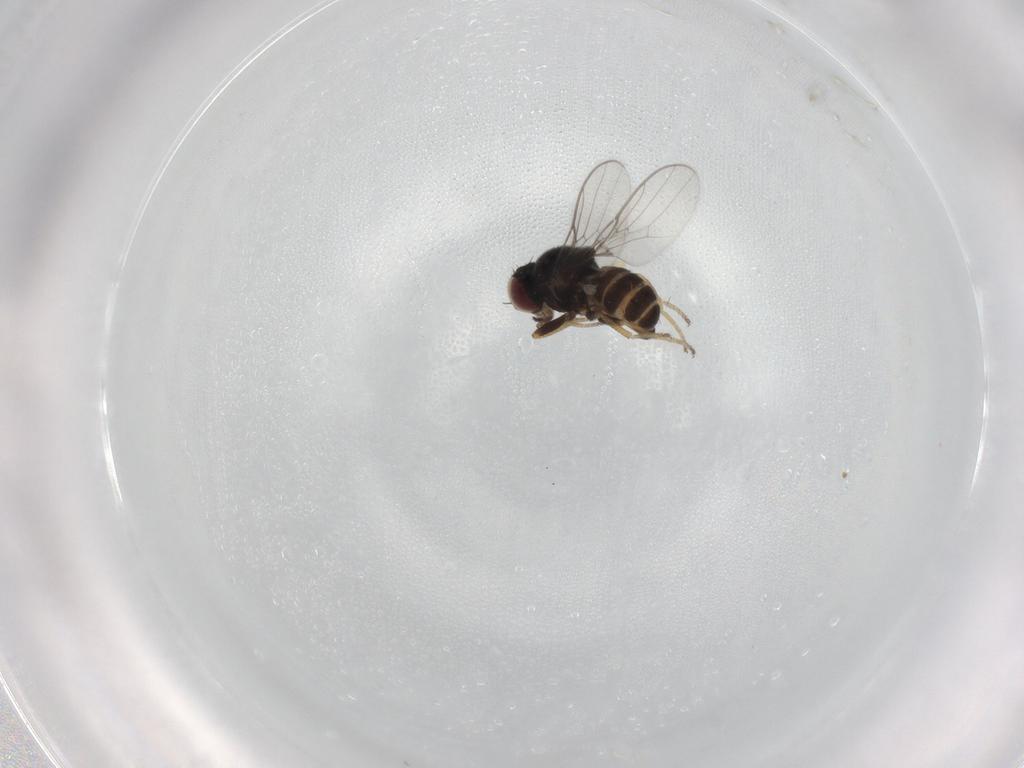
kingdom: Animalia
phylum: Arthropoda
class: Insecta
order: Diptera
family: Chloropidae
